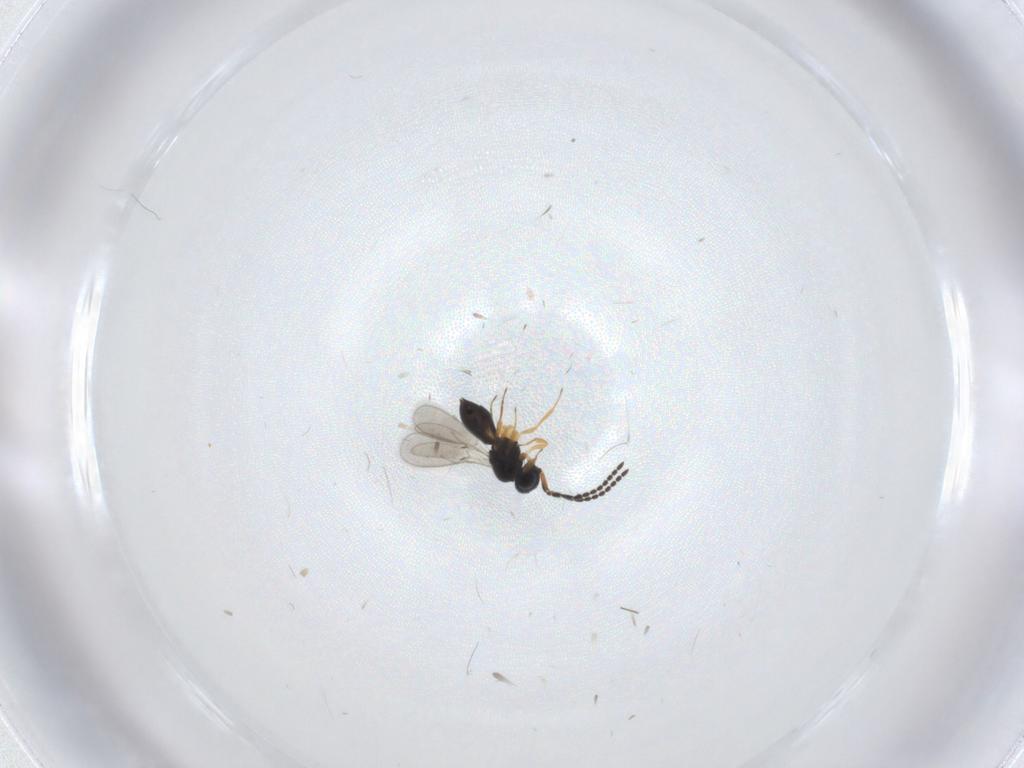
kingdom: Animalia
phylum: Arthropoda
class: Insecta
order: Hymenoptera
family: Scelionidae
